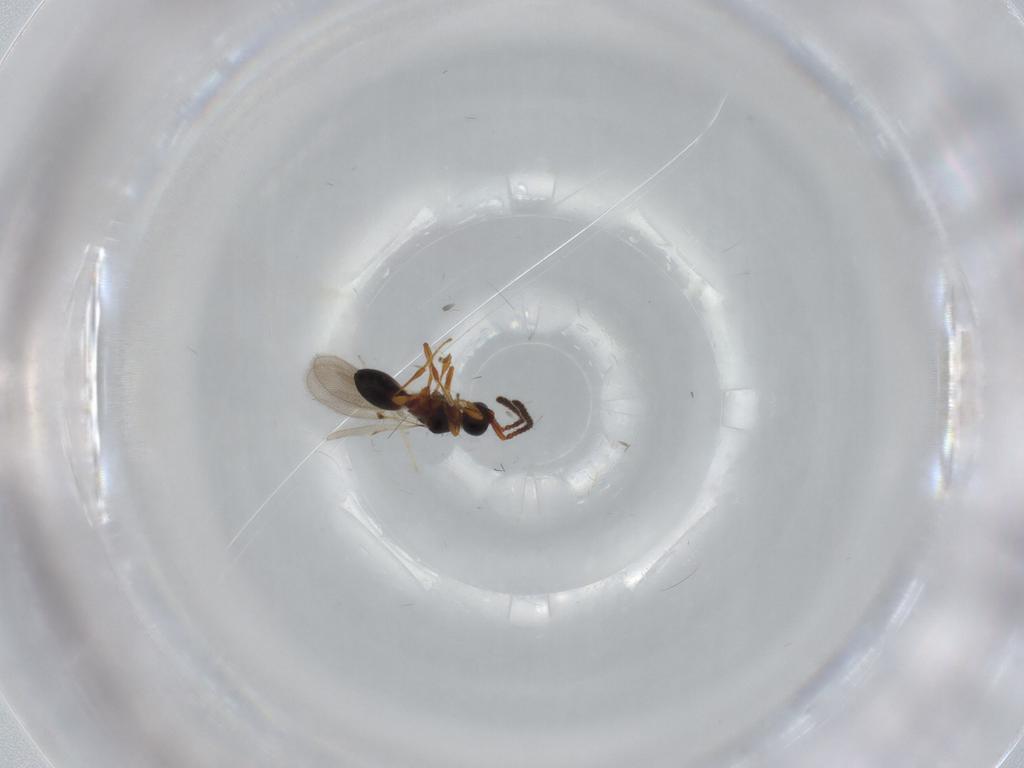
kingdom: Animalia
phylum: Arthropoda
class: Insecta
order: Hymenoptera
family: Diapriidae
